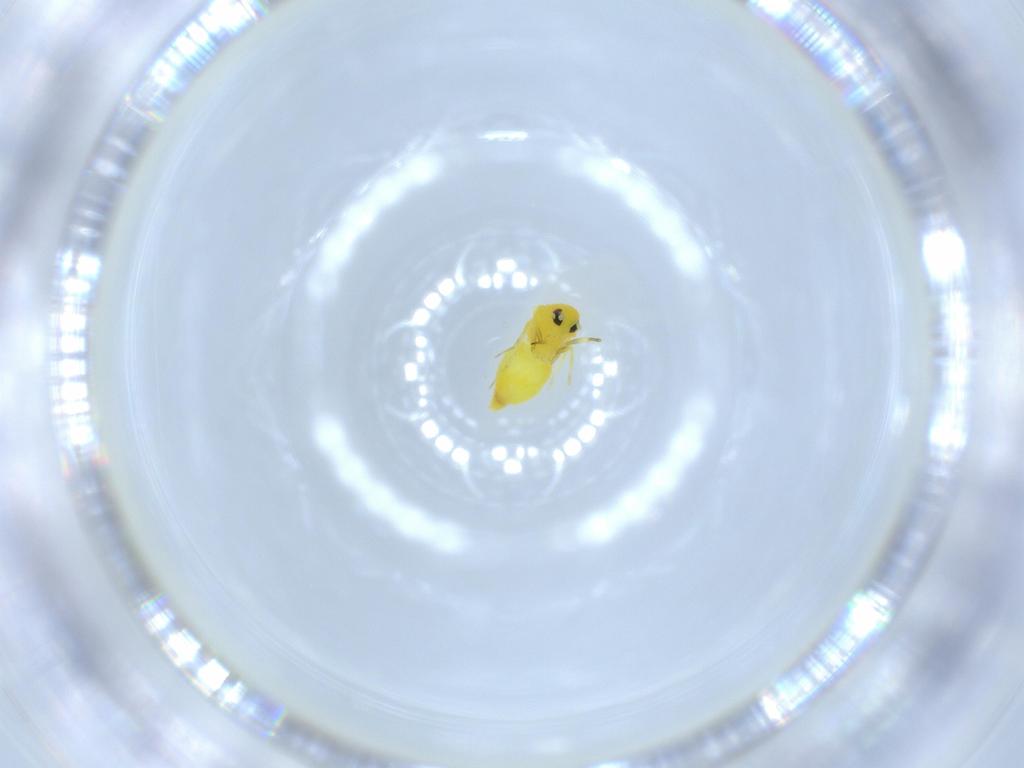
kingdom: Animalia
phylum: Arthropoda
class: Insecta
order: Hemiptera
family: Aleyrodidae
